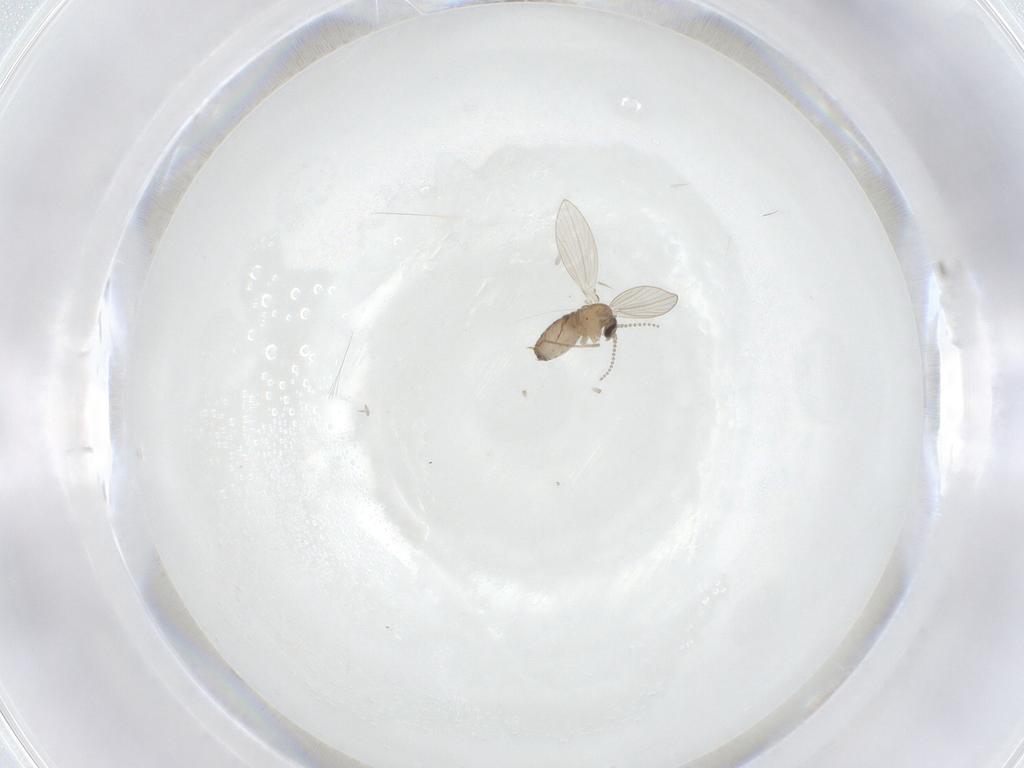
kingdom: Animalia
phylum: Arthropoda
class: Insecta
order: Diptera
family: Psychodidae
